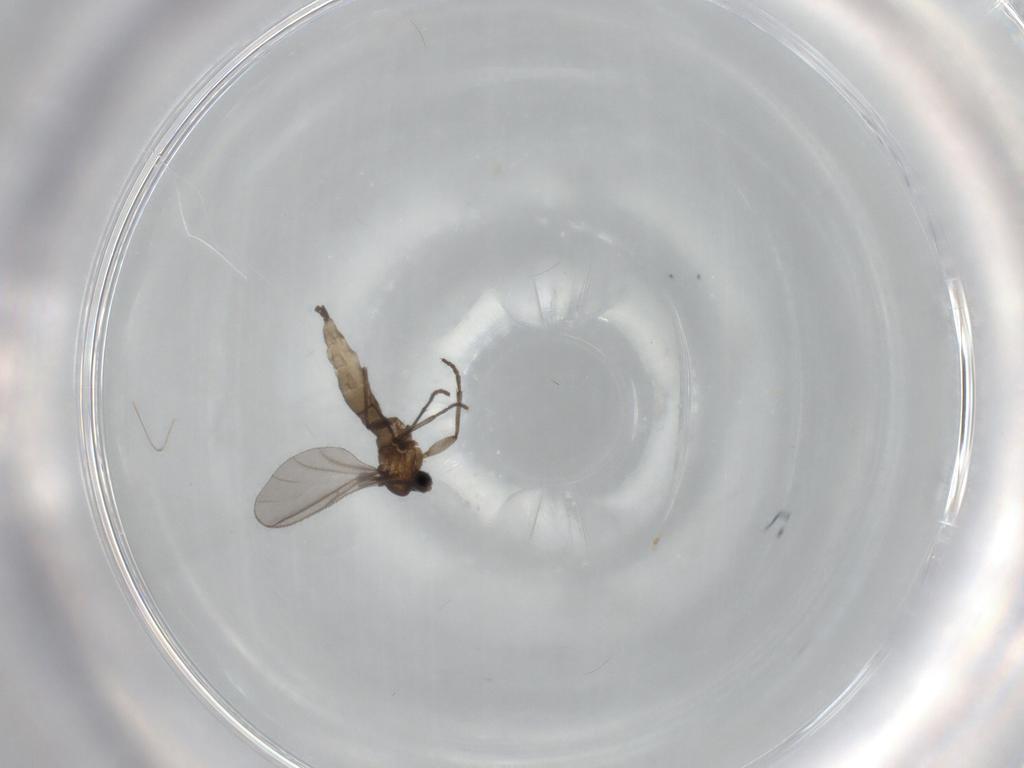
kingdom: Animalia
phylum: Arthropoda
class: Insecta
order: Diptera
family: Sciaridae
